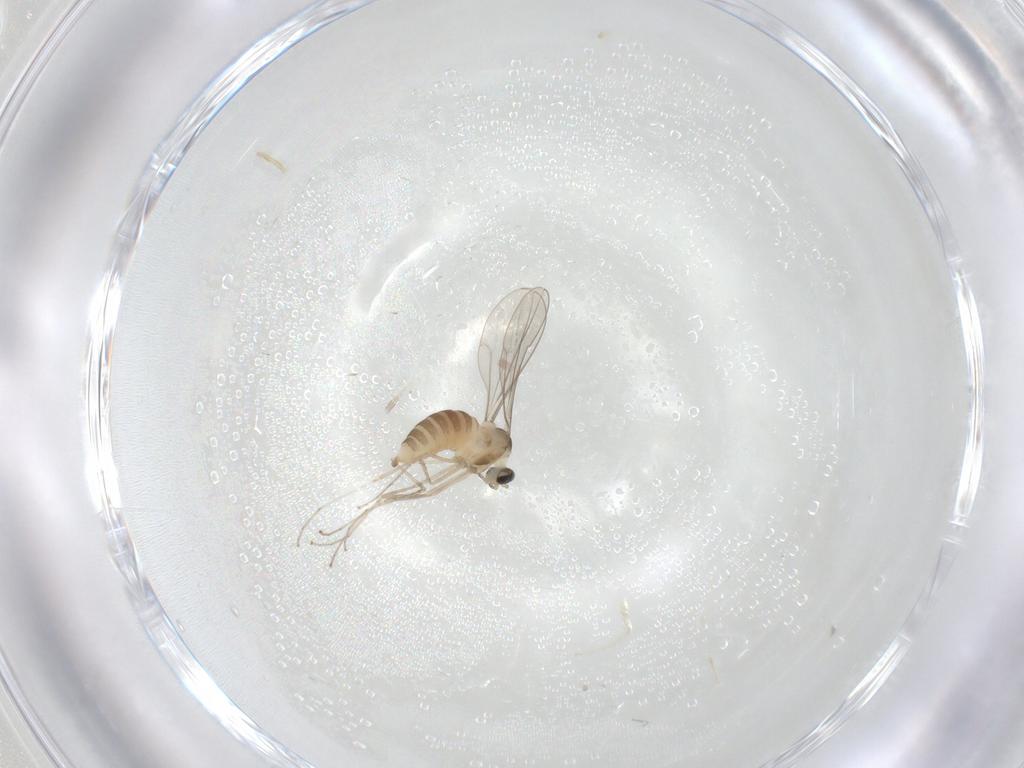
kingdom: Animalia
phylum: Arthropoda
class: Insecta
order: Diptera
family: Cecidomyiidae
